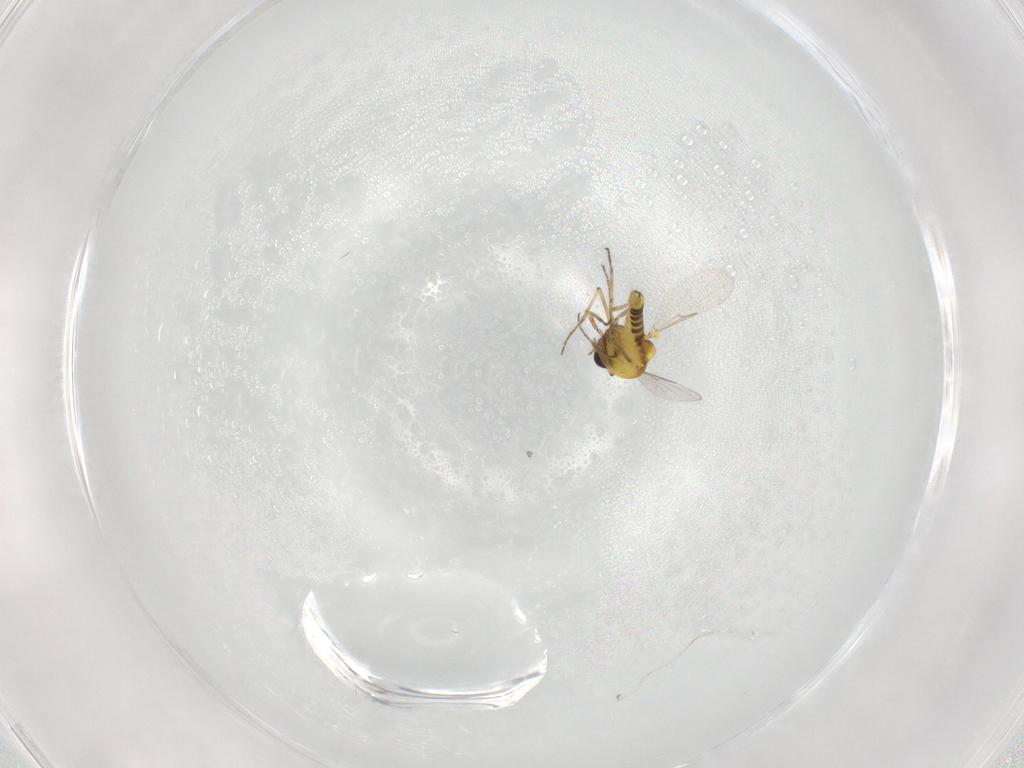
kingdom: Animalia
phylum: Arthropoda
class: Insecta
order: Diptera
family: Ceratopogonidae
